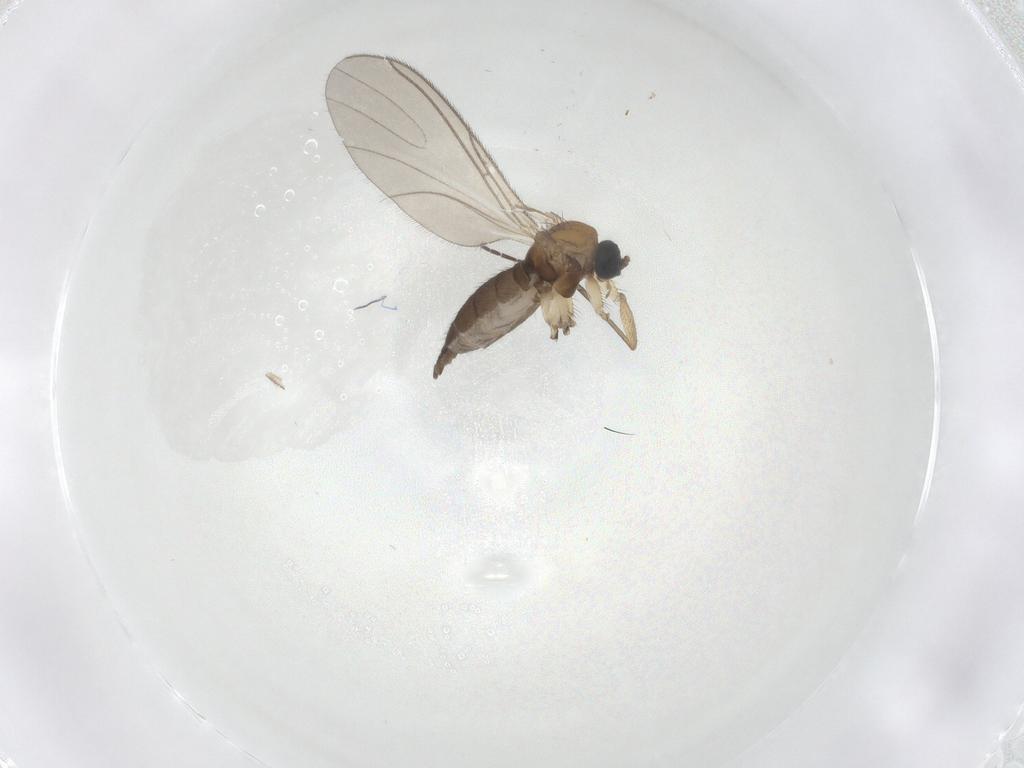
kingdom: Animalia
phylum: Arthropoda
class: Insecta
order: Diptera
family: Sciaridae
